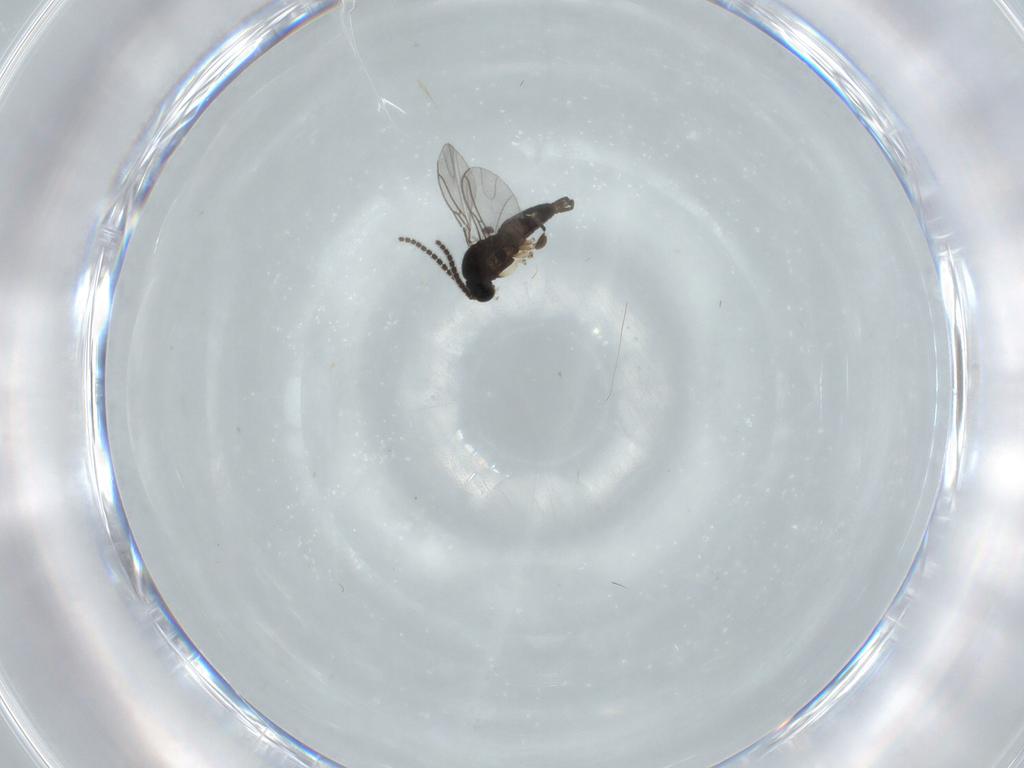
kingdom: Animalia
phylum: Arthropoda
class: Insecta
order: Diptera
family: Sciaridae
